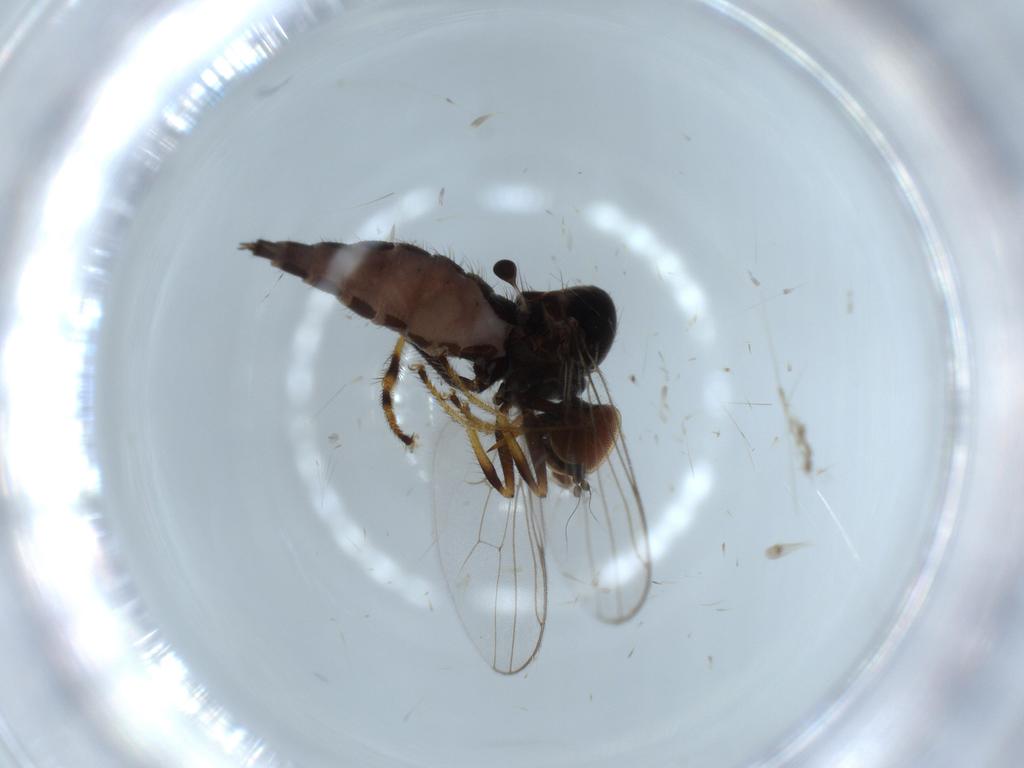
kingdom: Animalia
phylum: Arthropoda
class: Insecta
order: Diptera
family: Hybotidae
